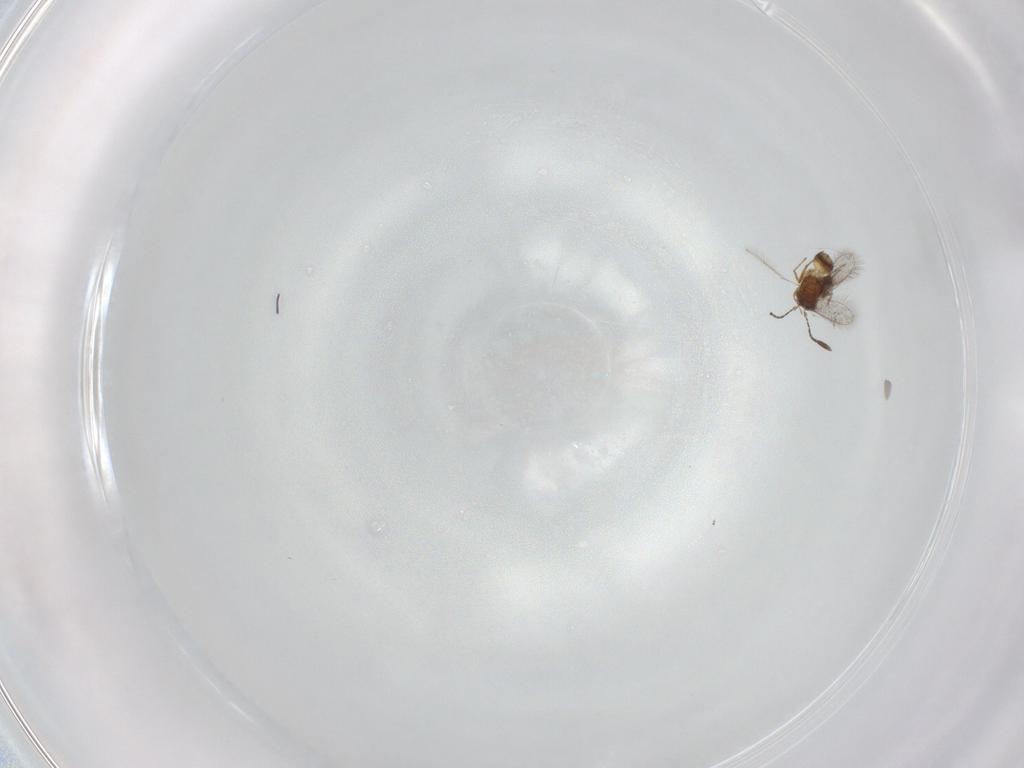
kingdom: Animalia
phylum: Arthropoda
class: Insecta
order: Hymenoptera
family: Mymaridae
